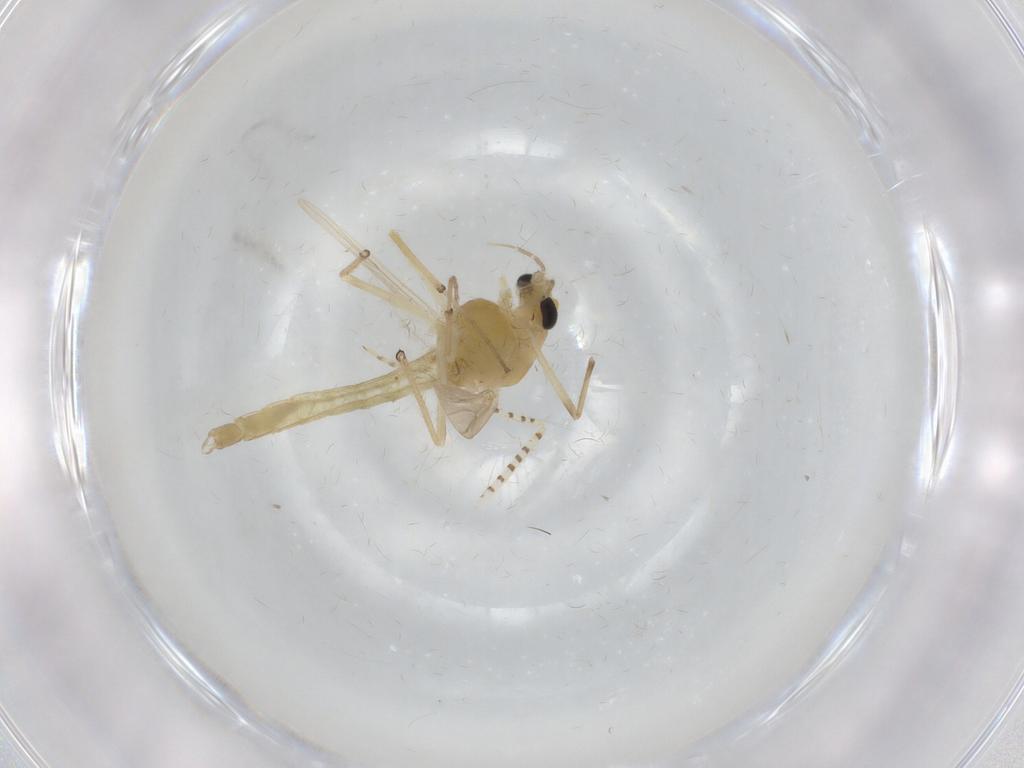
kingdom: Animalia
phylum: Arthropoda
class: Insecta
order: Diptera
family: Chironomidae
